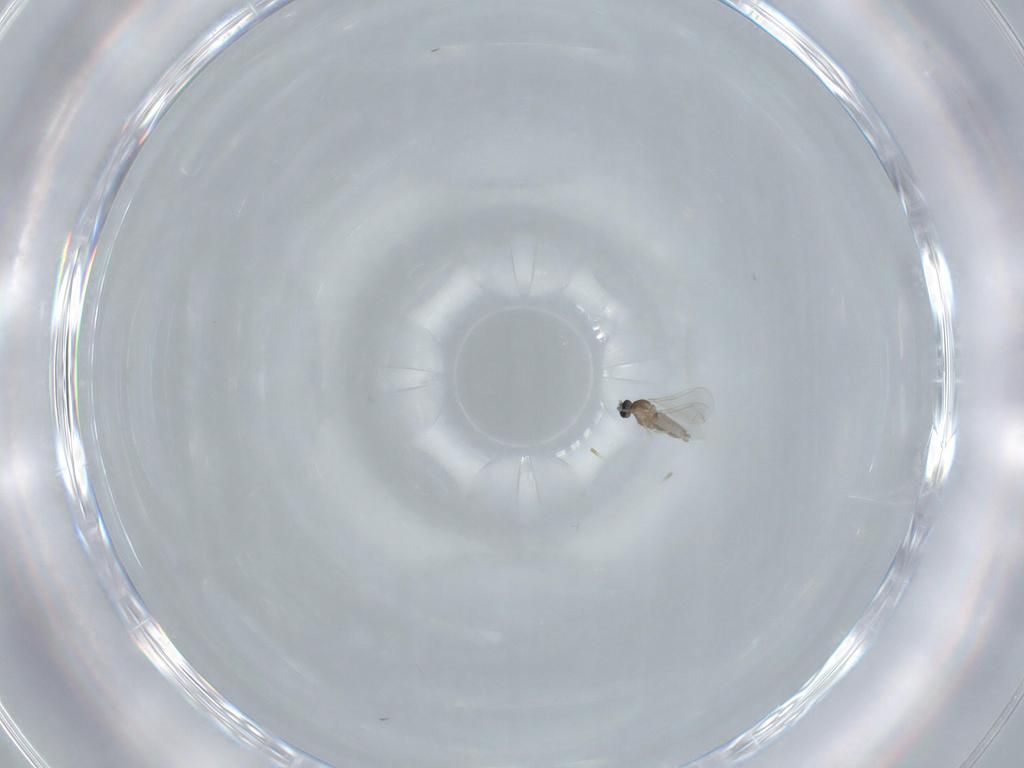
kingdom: Animalia
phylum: Arthropoda
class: Insecta
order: Diptera
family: Cecidomyiidae
